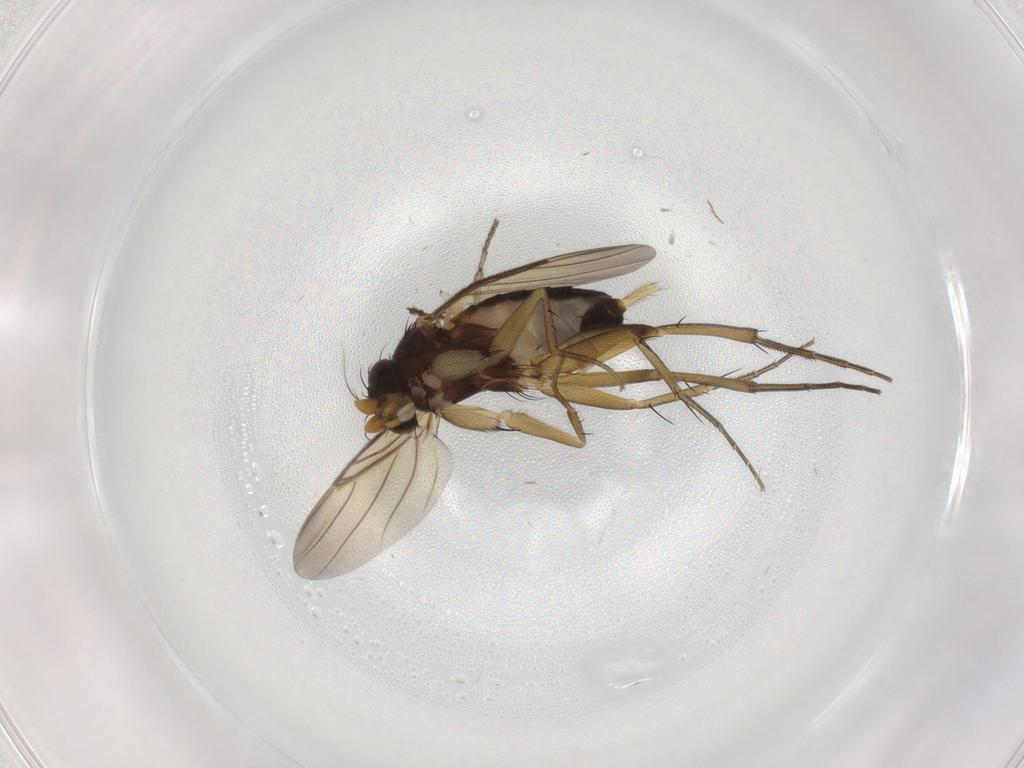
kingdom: Animalia
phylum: Arthropoda
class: Insecta
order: Diptera
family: Phoridae
